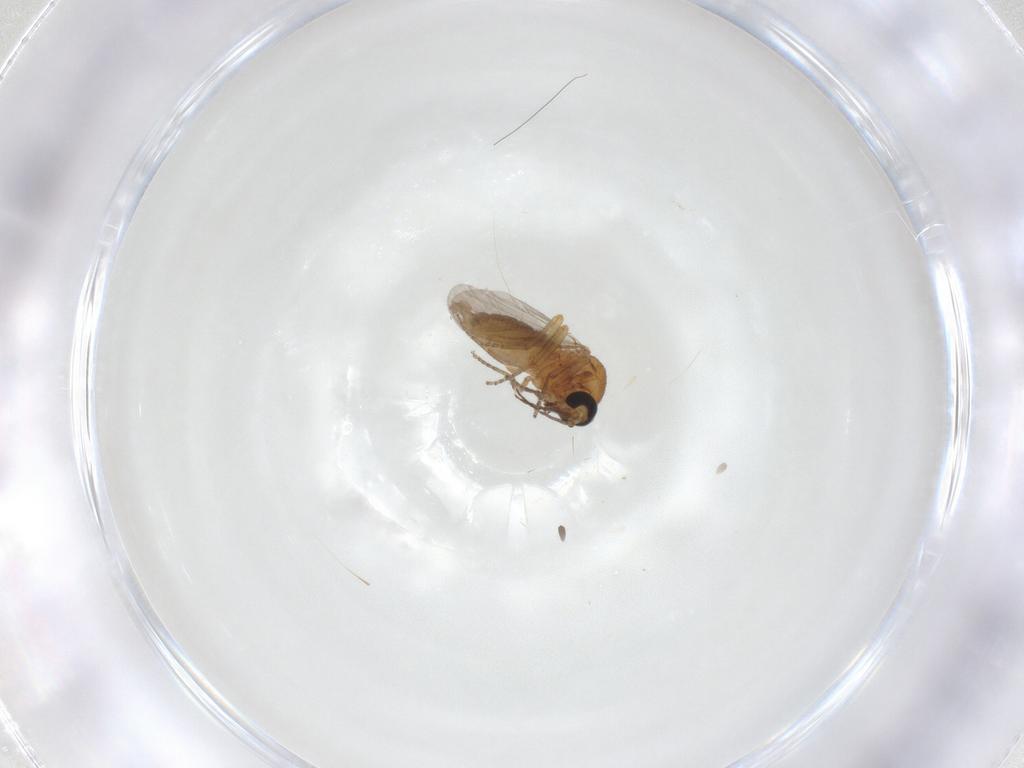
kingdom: Animalia
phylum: Arthropoda
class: Insecta
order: Diptera
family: Ceratopogonidae
